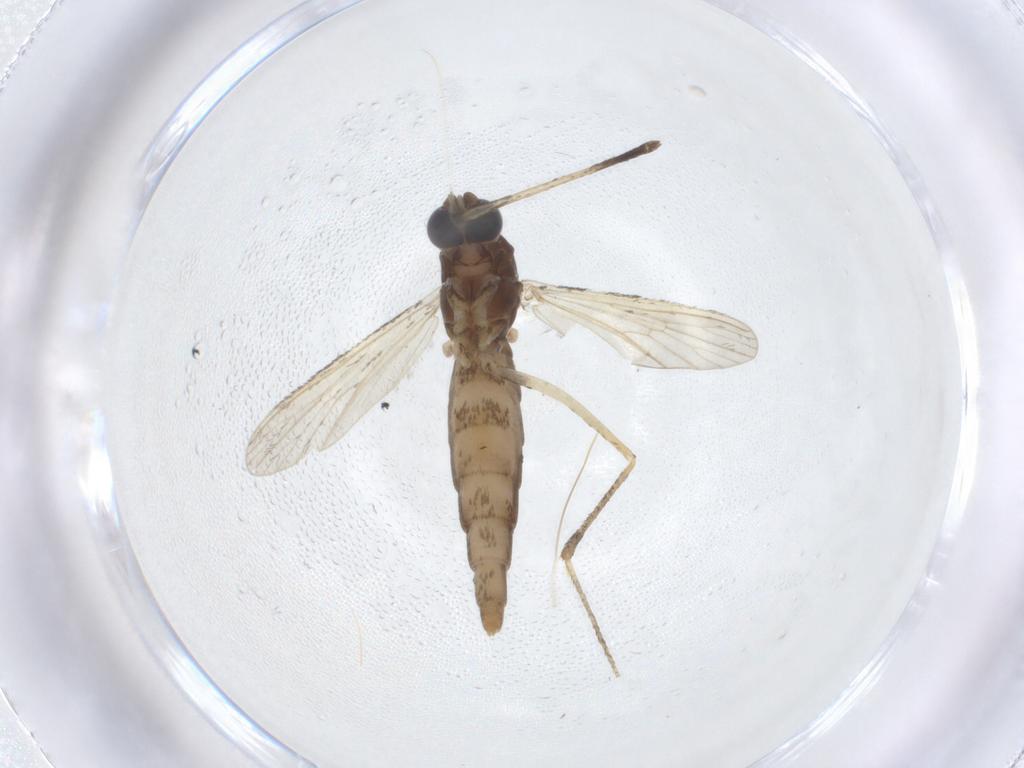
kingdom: Animalia
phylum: Arthropoda
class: Insecta
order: Diptera
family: Culicidae
